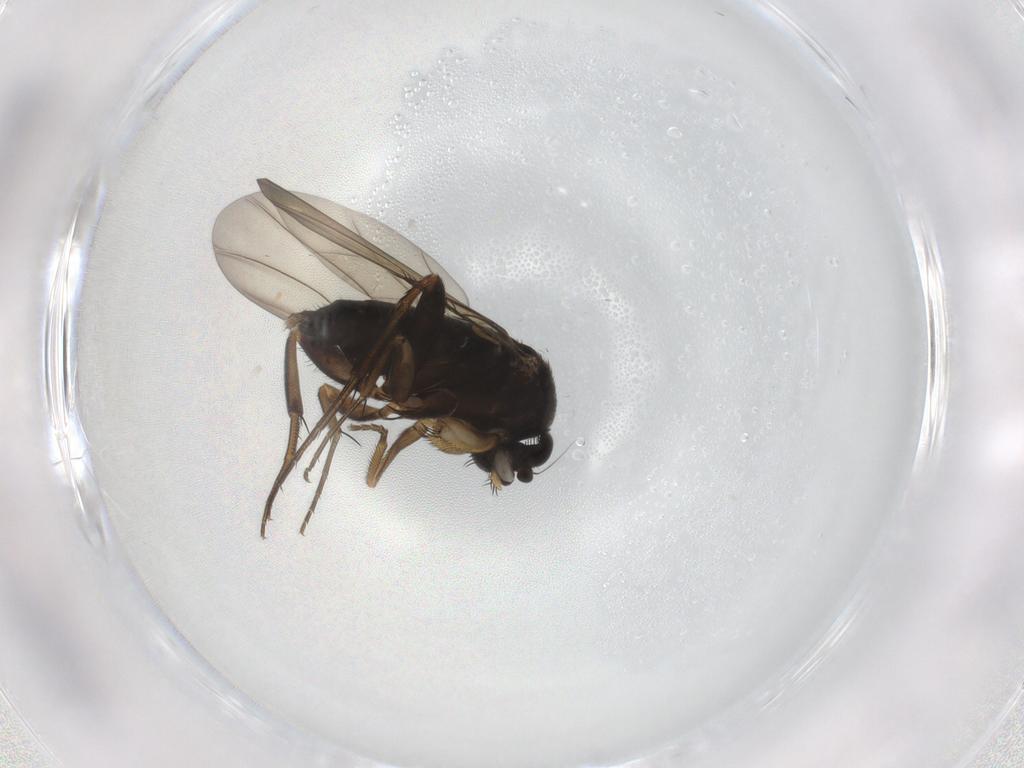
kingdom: Animalia
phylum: Arthropoda
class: Insecta
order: Diptera
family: Phoridae
